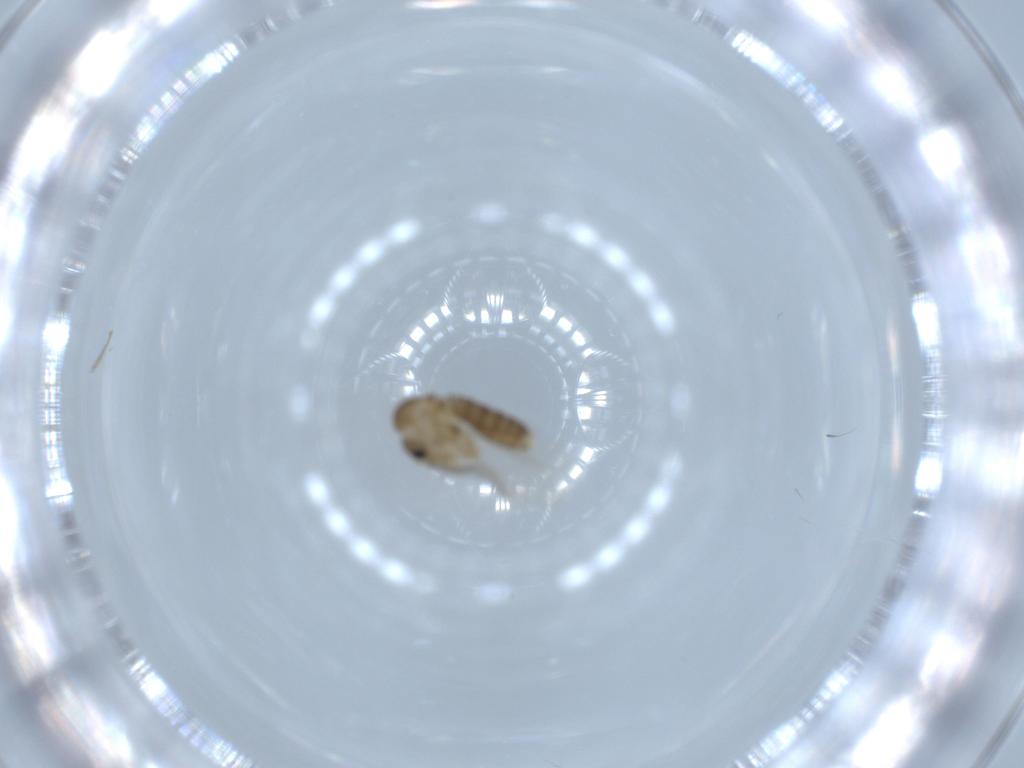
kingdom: Animalia
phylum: Arthropoda
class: Insecta
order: Diptera
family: Psychodidae
